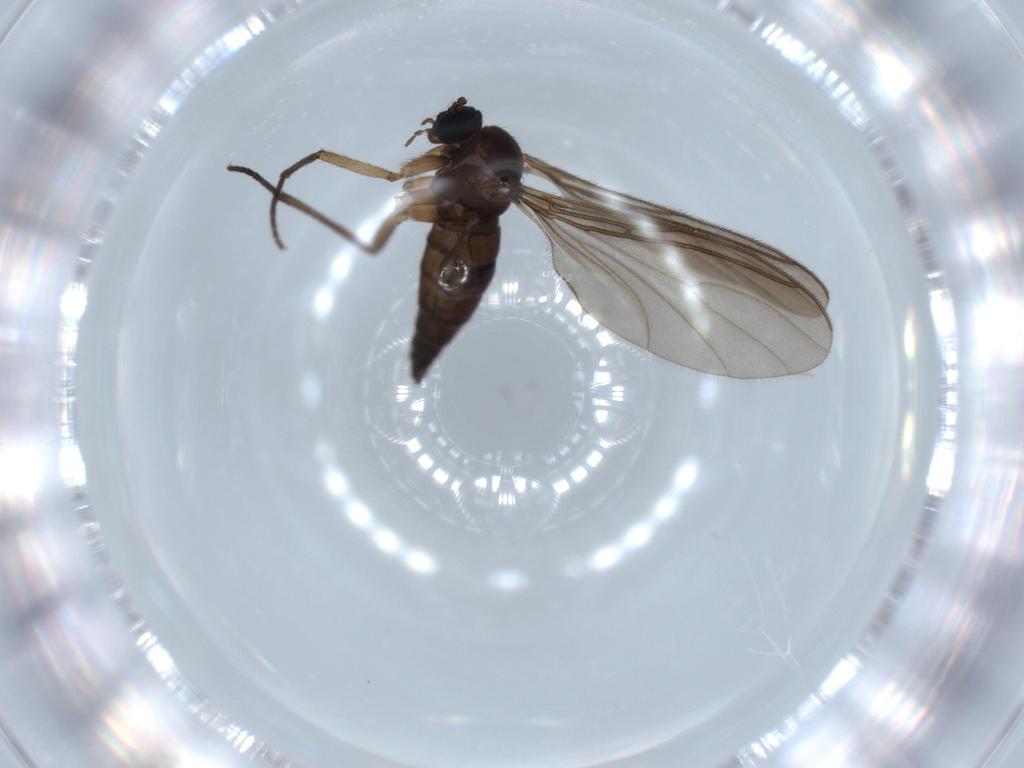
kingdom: Animalia
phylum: Arthropoda
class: Insecta
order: Diptera
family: Sciaridae
